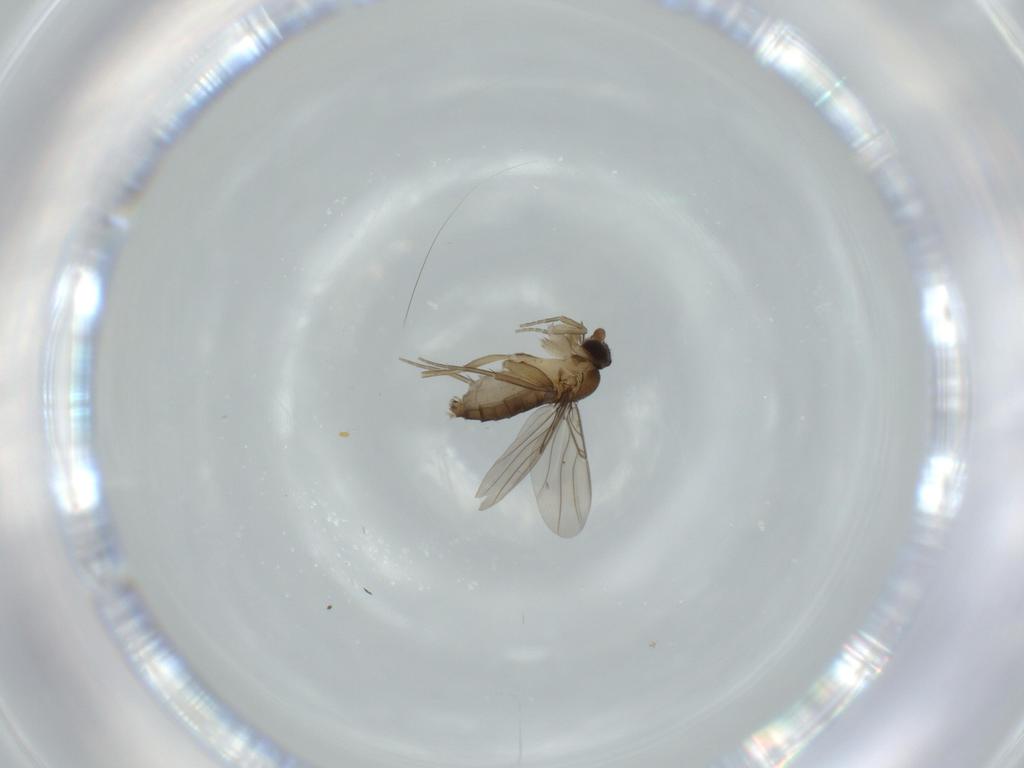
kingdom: Animalia
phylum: Arthropoda
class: Insecta
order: Diptera
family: Phoridae
